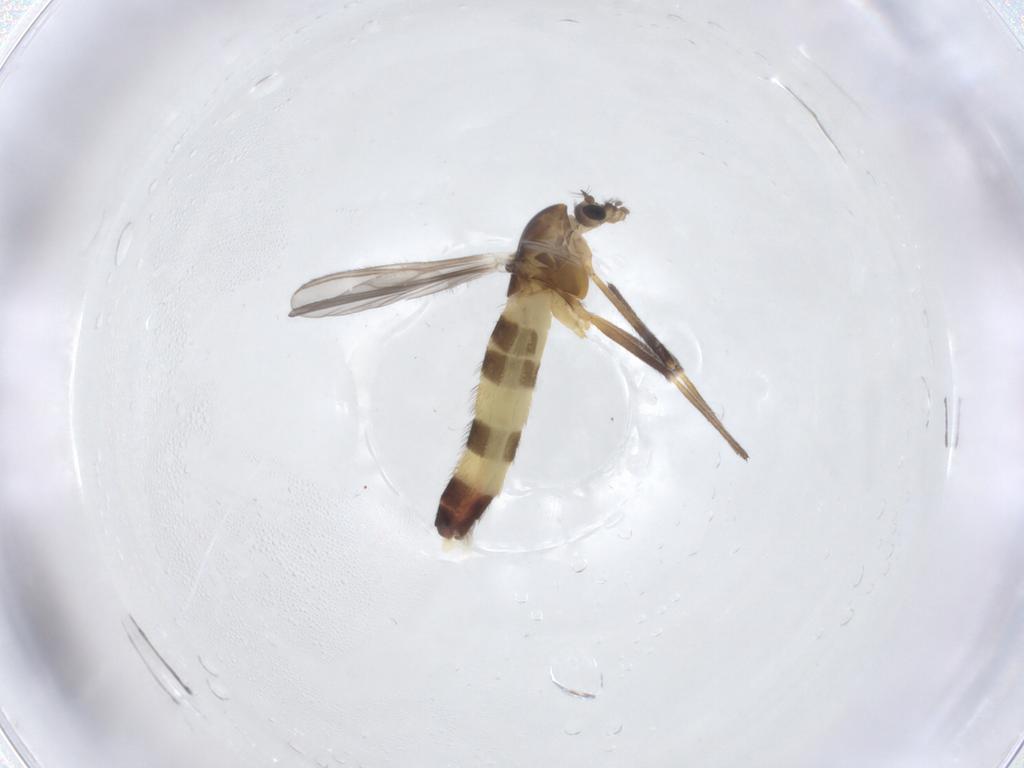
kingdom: Animalia
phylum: Arthropoda
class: Insecta
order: Diptera
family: Chironomidae
